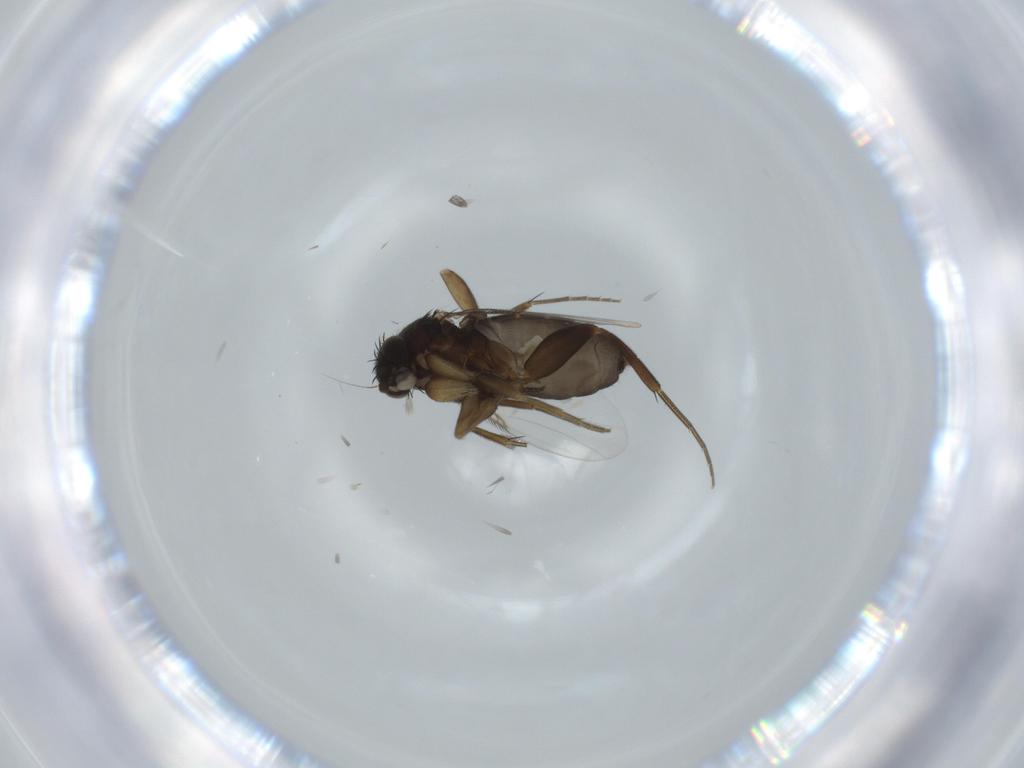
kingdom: Animalia
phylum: Arthropoda
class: Insecta
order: Diptera
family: Phoridae
